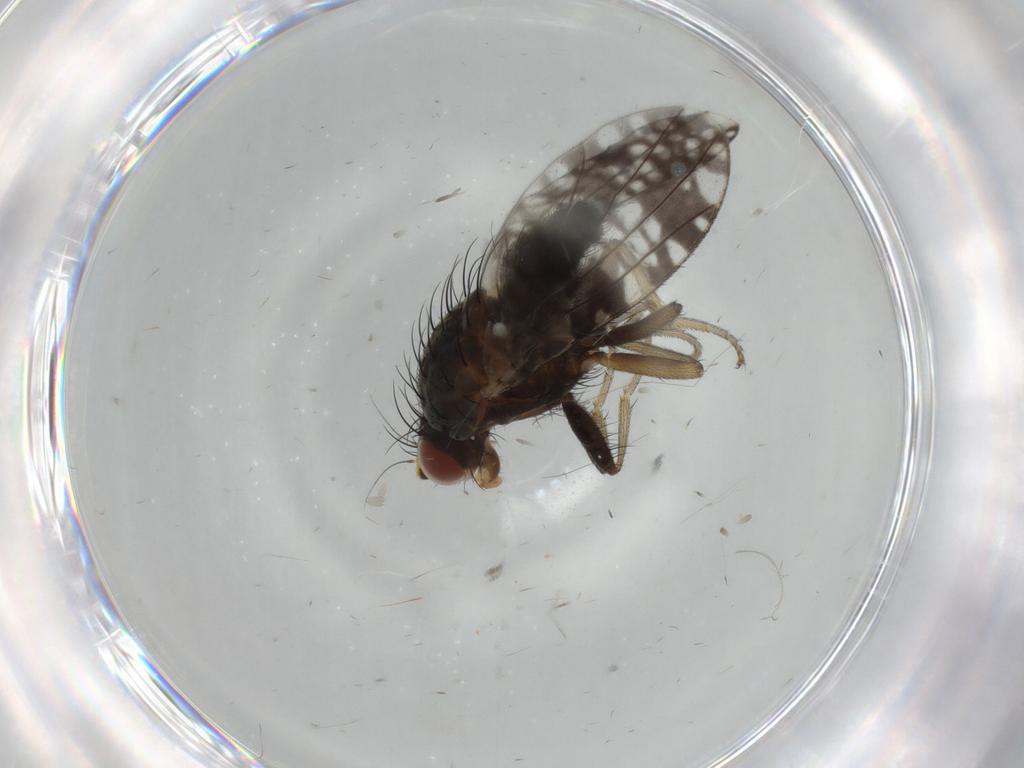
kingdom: Animalia
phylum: Arthropoda
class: Insecta
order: Diptera
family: Tephritidae
